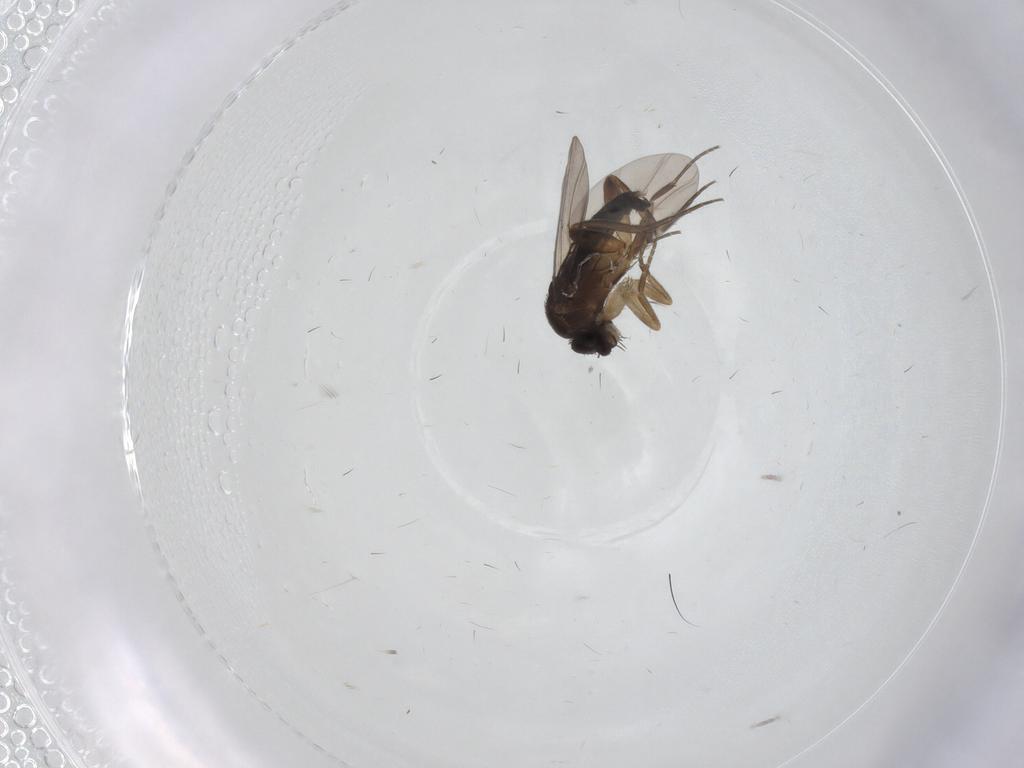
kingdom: Animalia
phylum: Arthropoda
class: Insecta
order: Diptera
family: Phoridae
